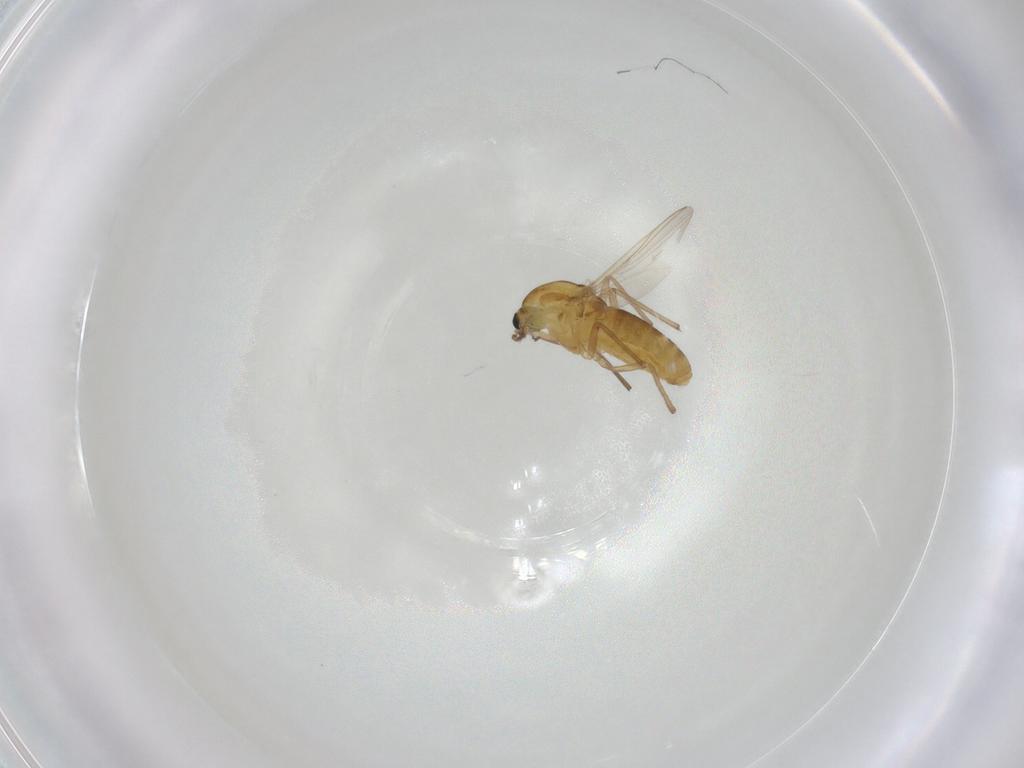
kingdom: Animalia
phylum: Arthropoda
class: Insecta
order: Diptera
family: Chironomidae
